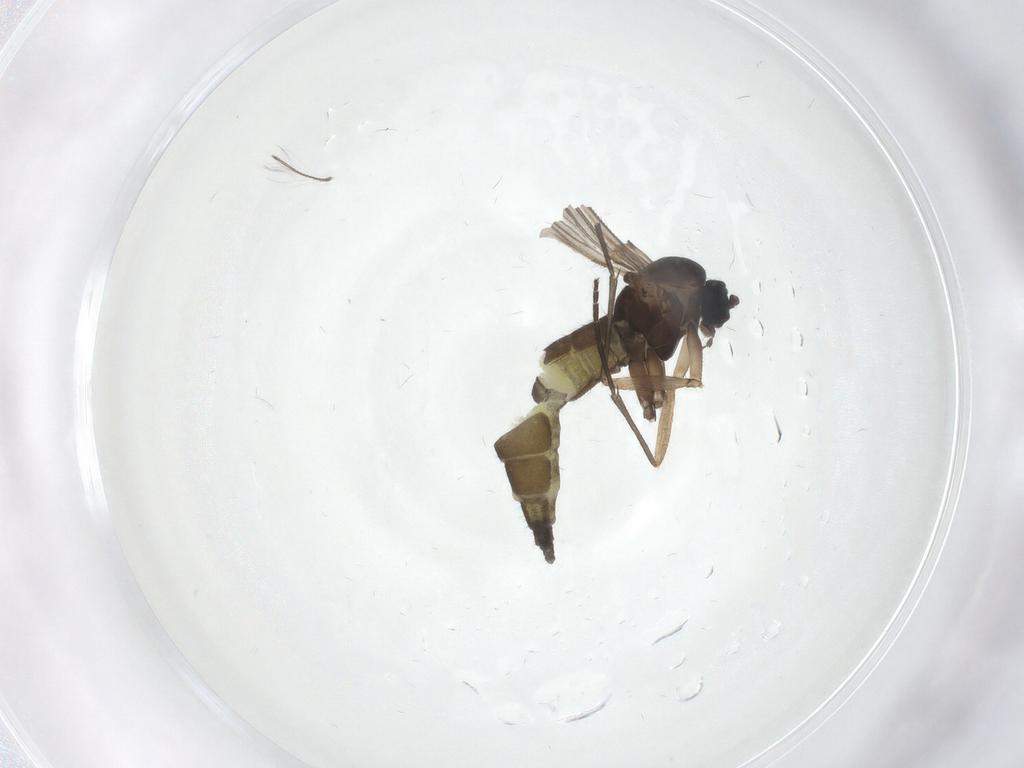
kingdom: Animalia
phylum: Arthropoda
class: Insecta
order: Diptera
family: Sciaridae
